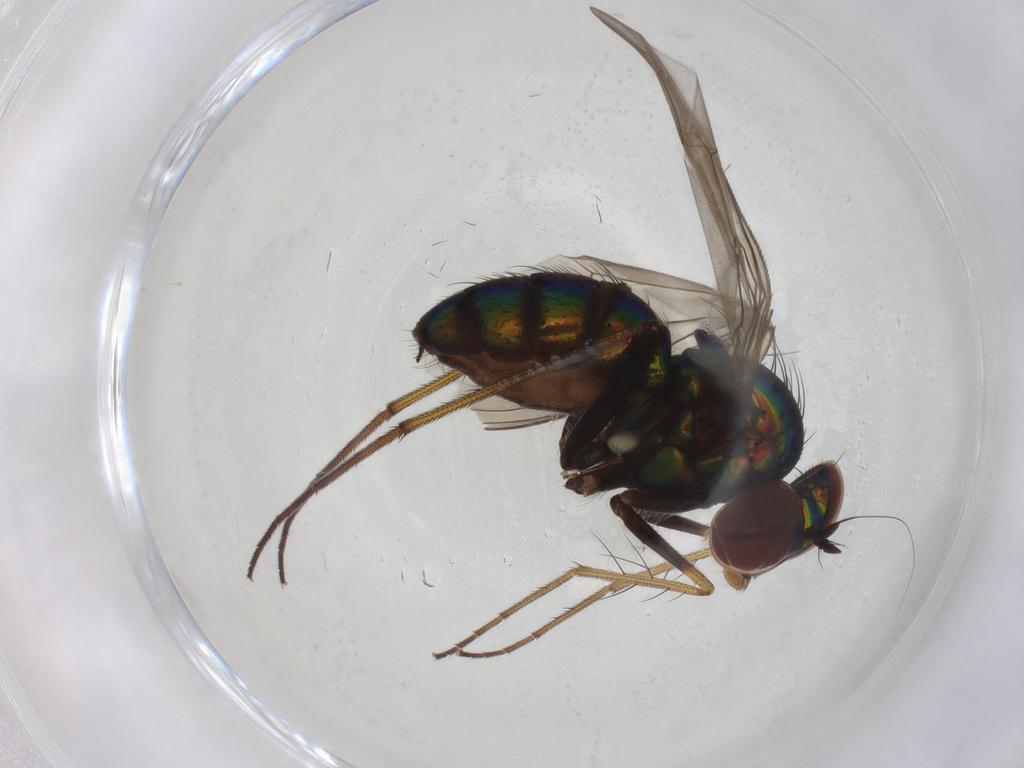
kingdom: Animalia
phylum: Arthropoda
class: Insecta
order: Diptera
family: Dolichopodidae
